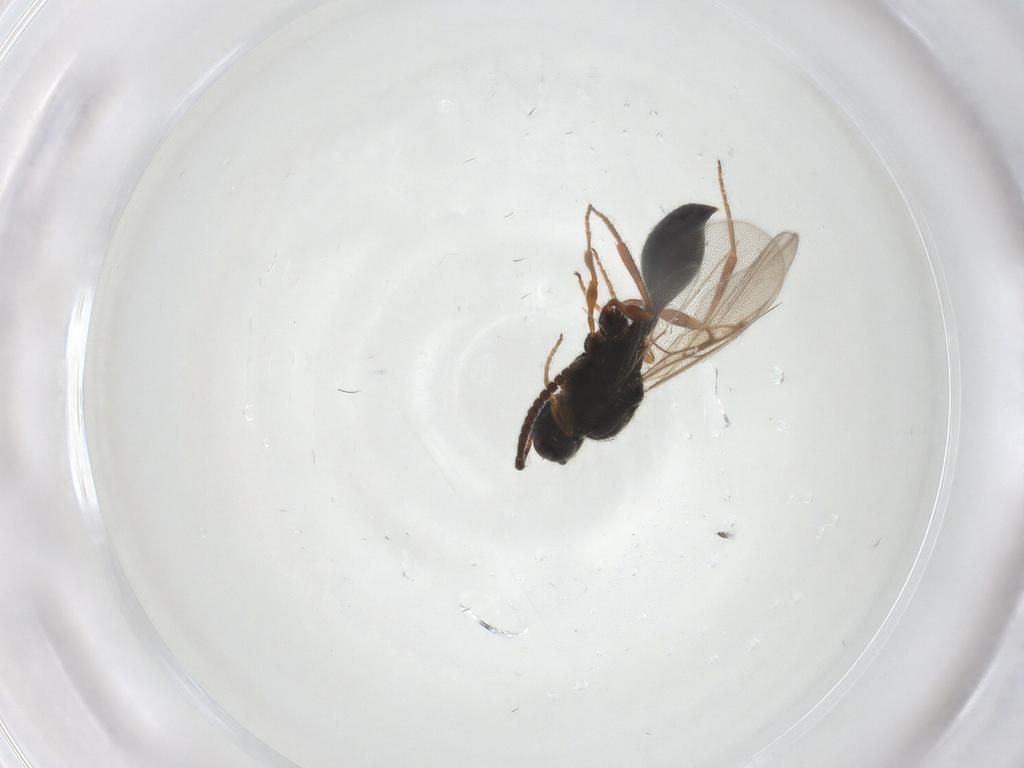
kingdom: Animalia
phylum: Arthropoda
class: Insecta
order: Hymenoptera
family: Diapriidae
